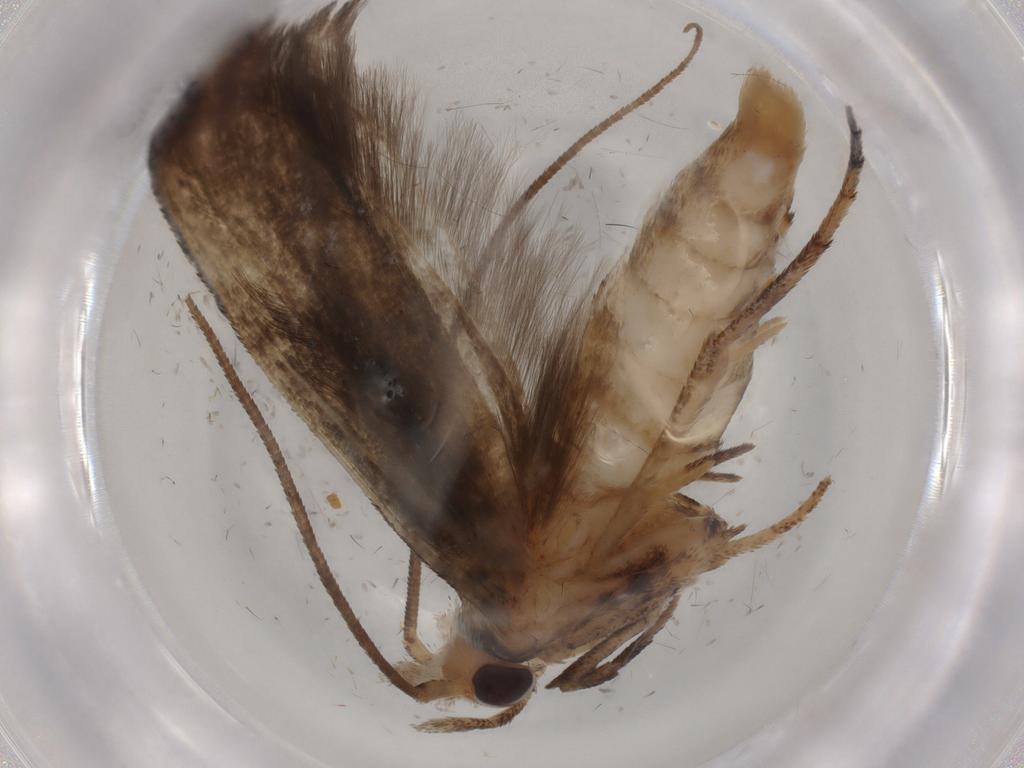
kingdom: Animalia
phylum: Arthropoda
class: Insecta
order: Lepidoptera
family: Yponomeutidae
